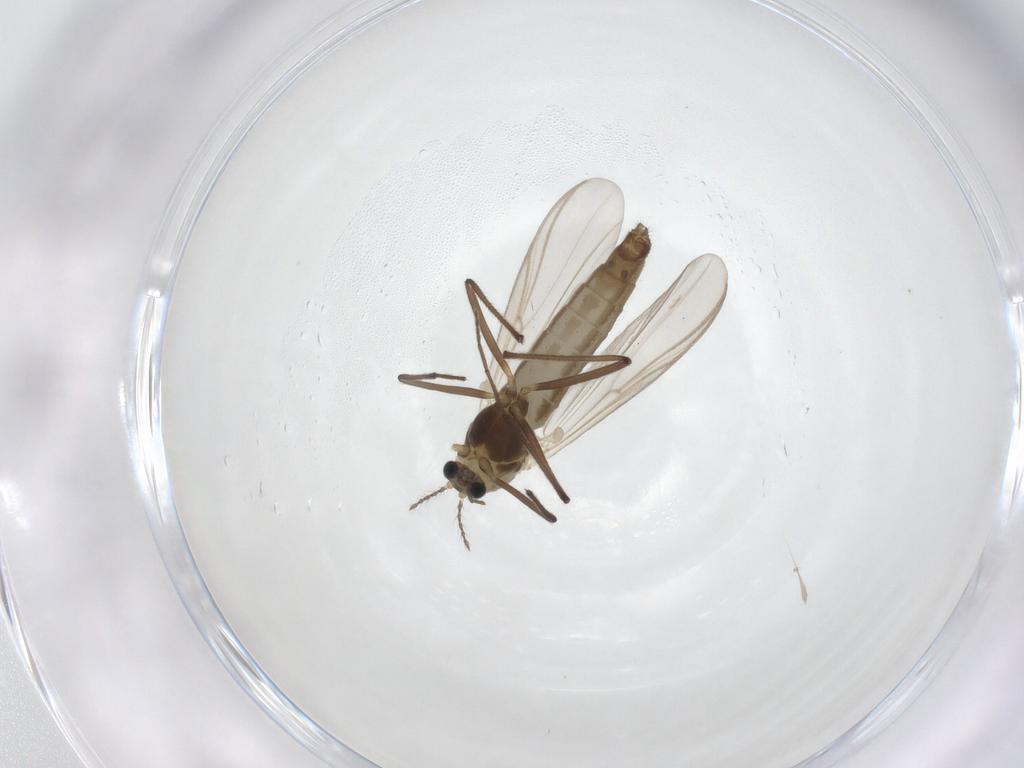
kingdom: Animalia
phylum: Arthropoda
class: Insecta
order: Diptera
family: Chironomidae
